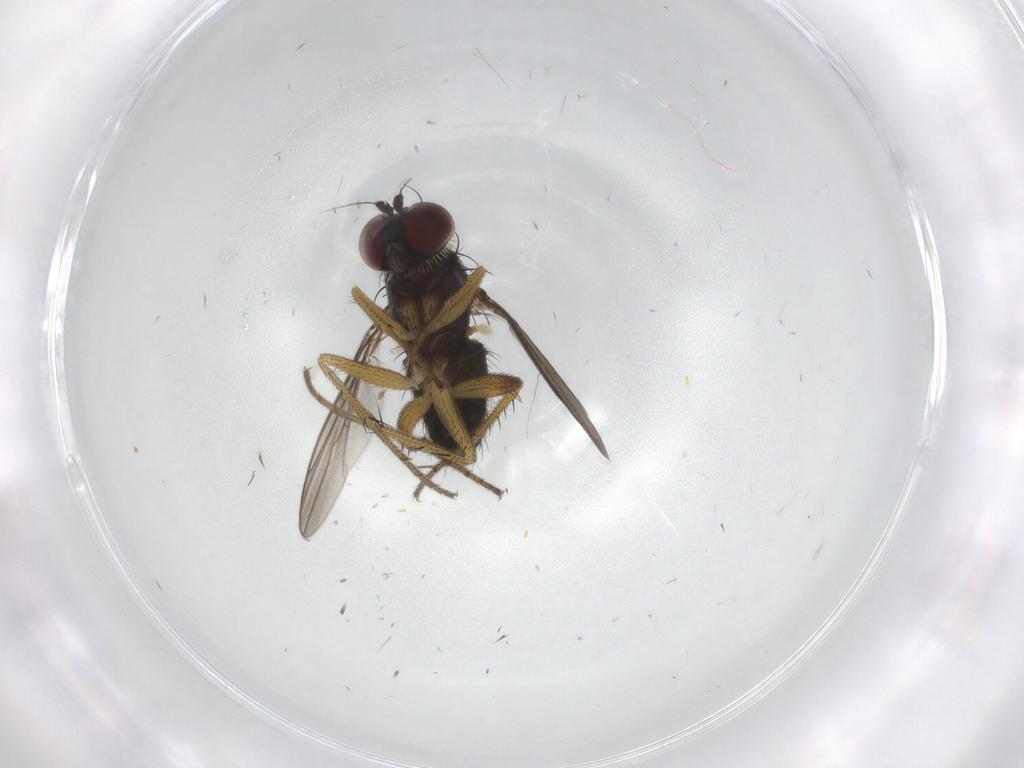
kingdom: Animalia
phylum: Arthropoda
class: Insecta
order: Diptera
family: Dolichopodidae
